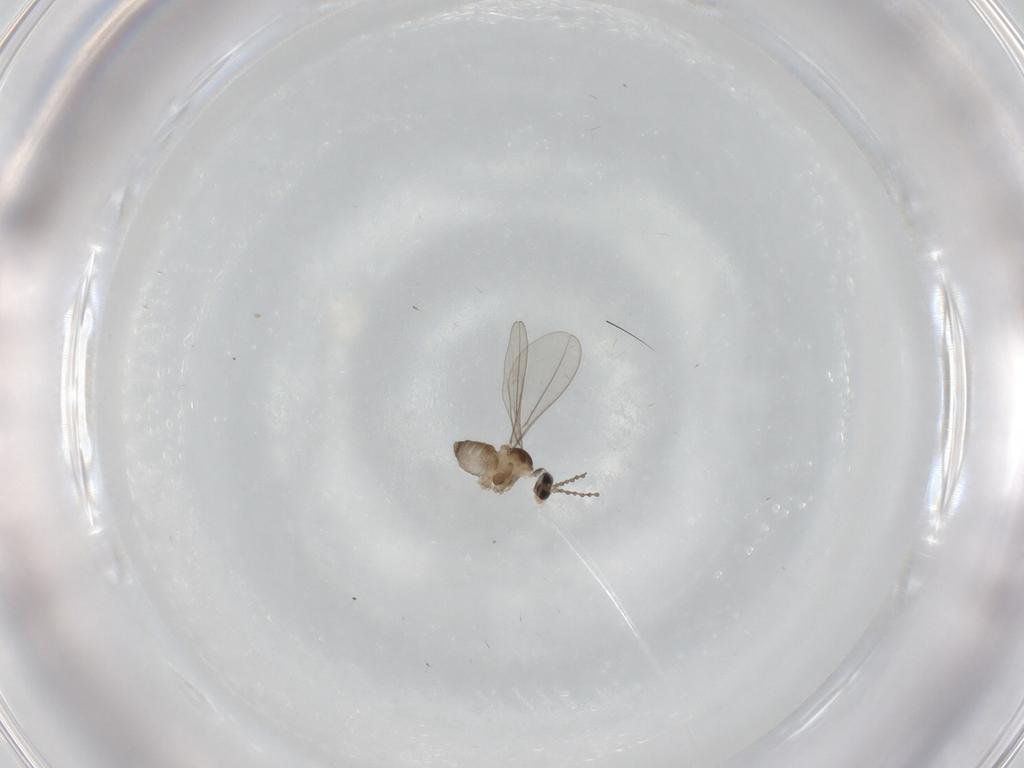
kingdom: Animalia
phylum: Arthropoda
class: Insecta
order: Diptera
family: Cecidomyiidae
